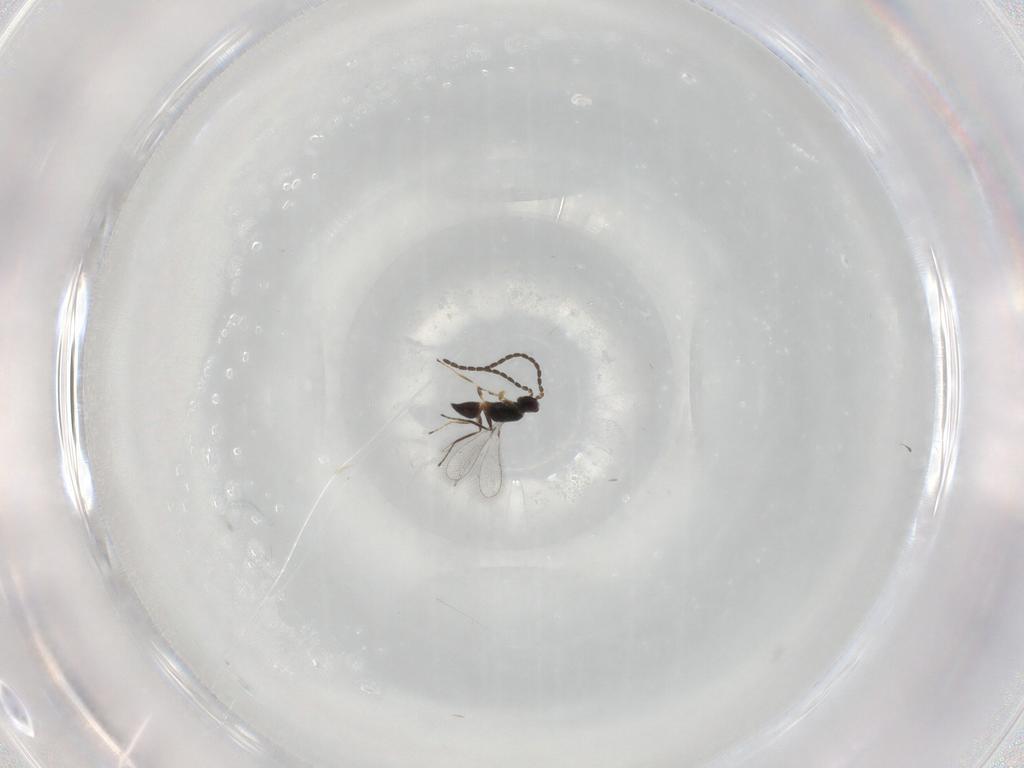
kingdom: Animalia
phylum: Arthropoda
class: Insecta
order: Hymenoptera
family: Mymaridae
